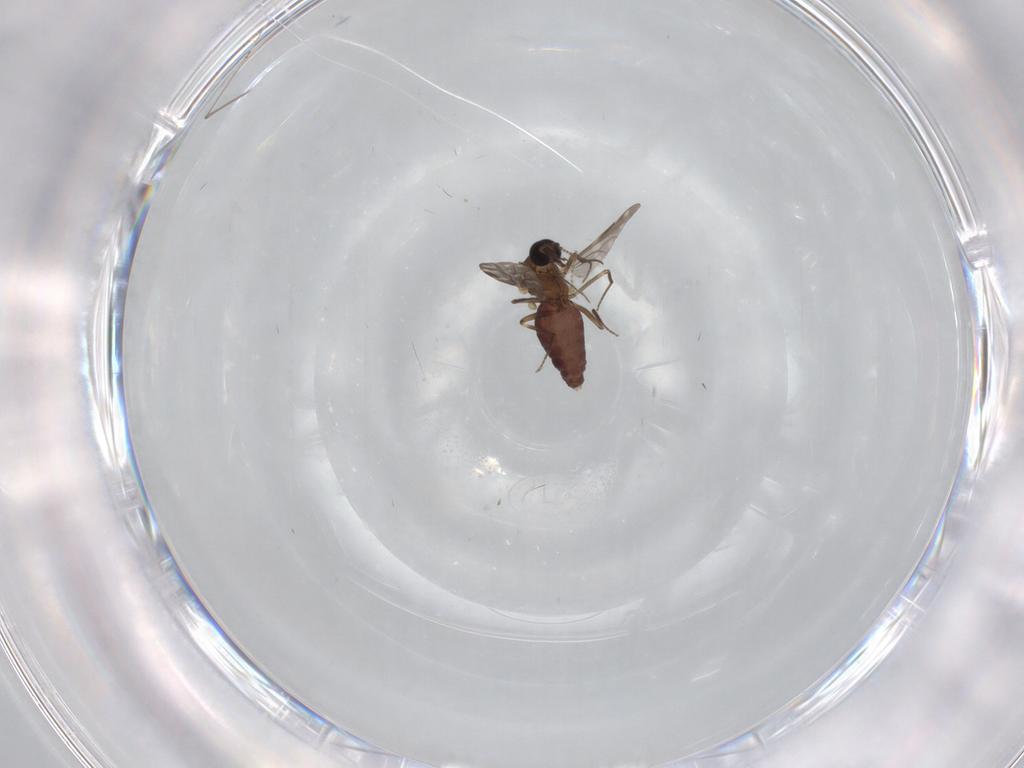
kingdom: Animalia
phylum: Arthropoda
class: Insecta
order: Diptera
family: Ceratopogonidae
